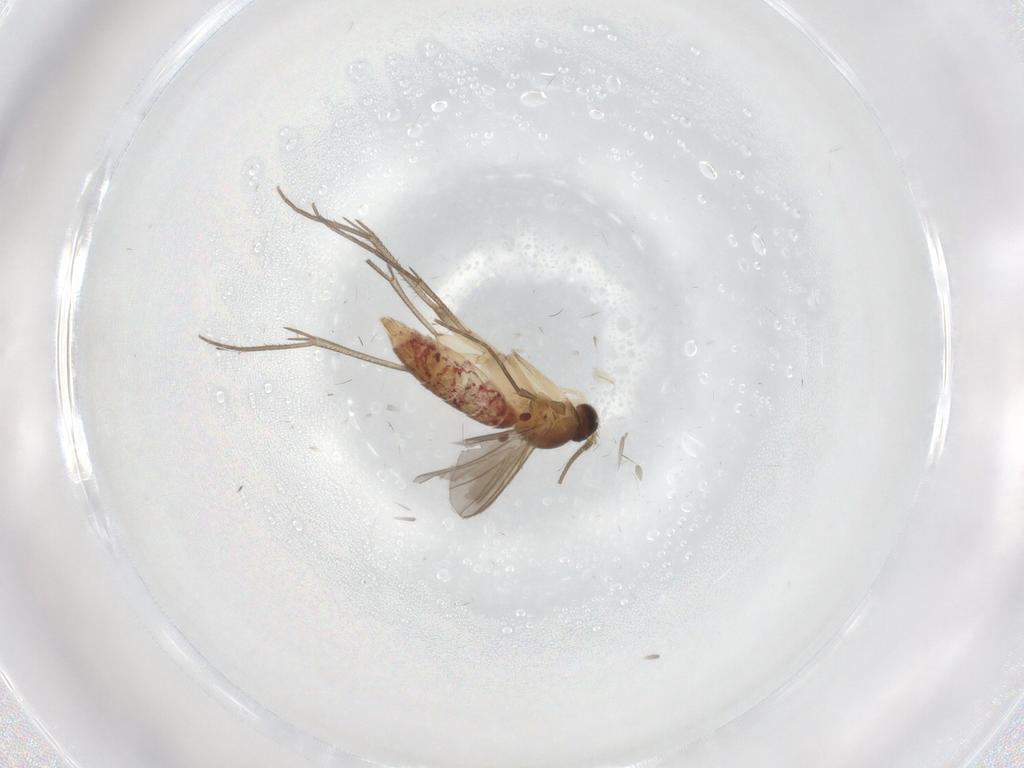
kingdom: Animalia
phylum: Arthropoda
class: Insecta
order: Diptera
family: Mycetophilidae
